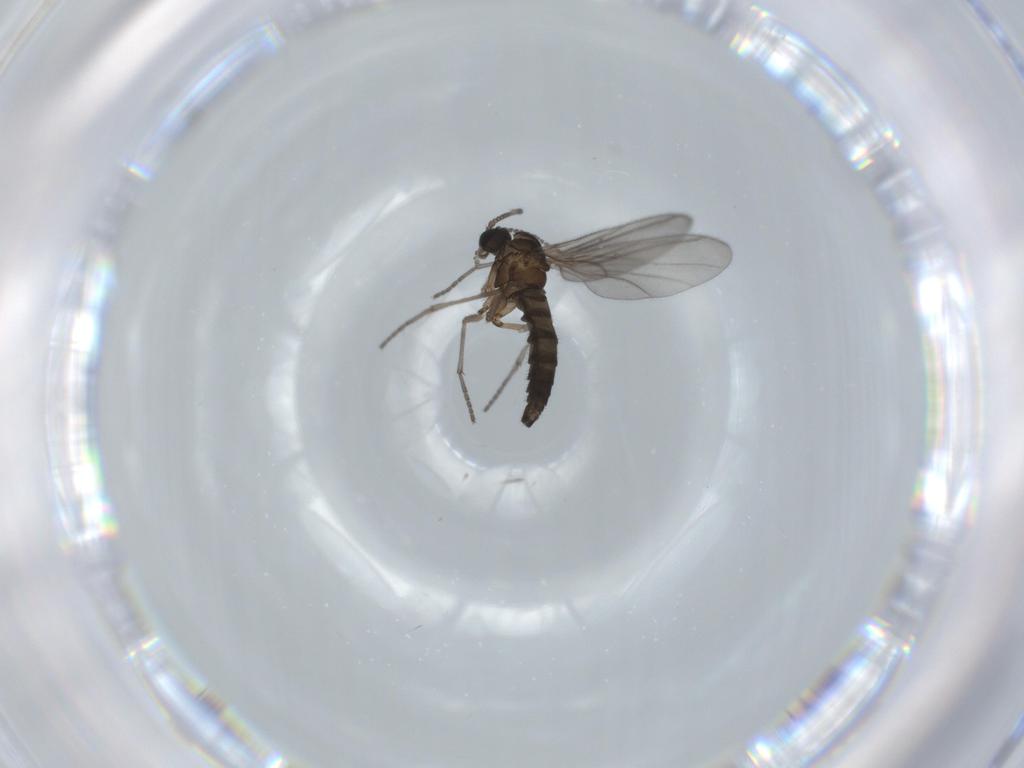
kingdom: Animalia
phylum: Arthropoda
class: Insecta
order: Diptera
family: Sciaridae
